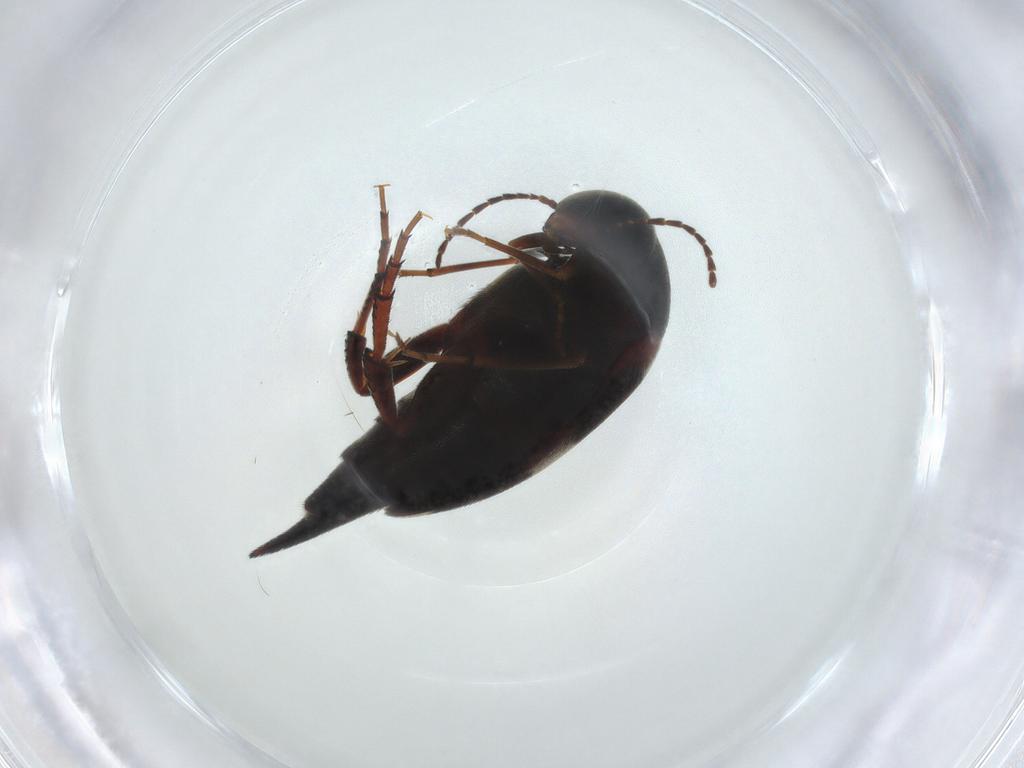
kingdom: Animalia
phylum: Arthropoda
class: Insecta
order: Coleoptera
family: Mordellidae
